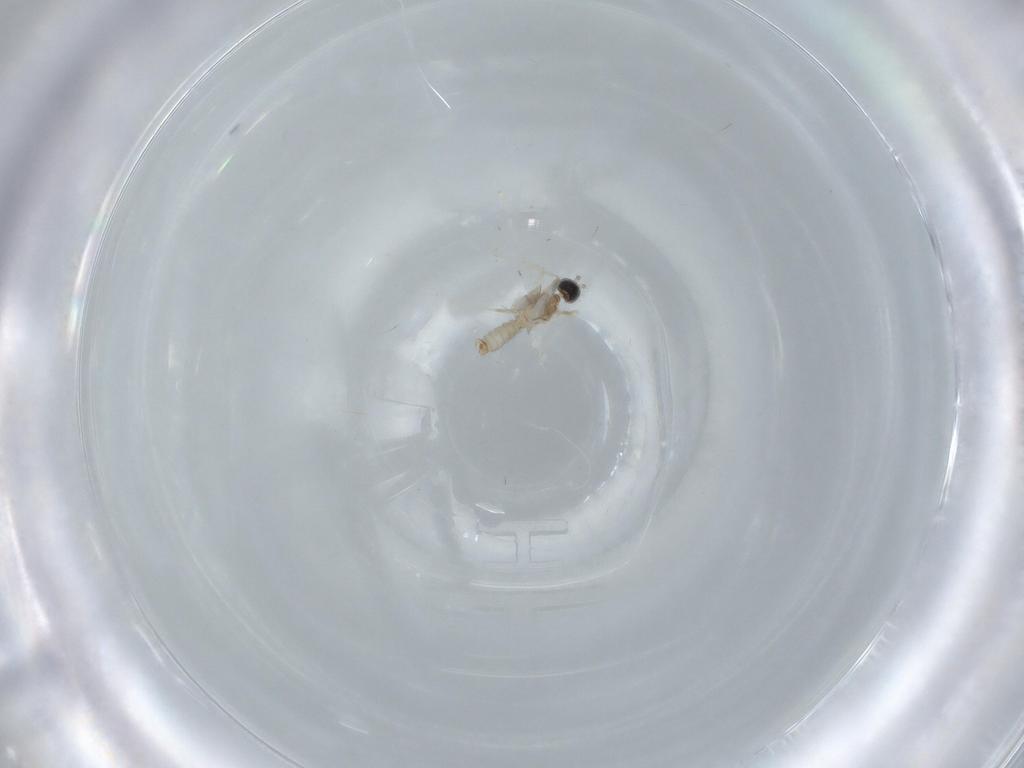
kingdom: Animalia
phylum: Arthropoda
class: Insecta
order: Diptera
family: Cecidomyiidae
